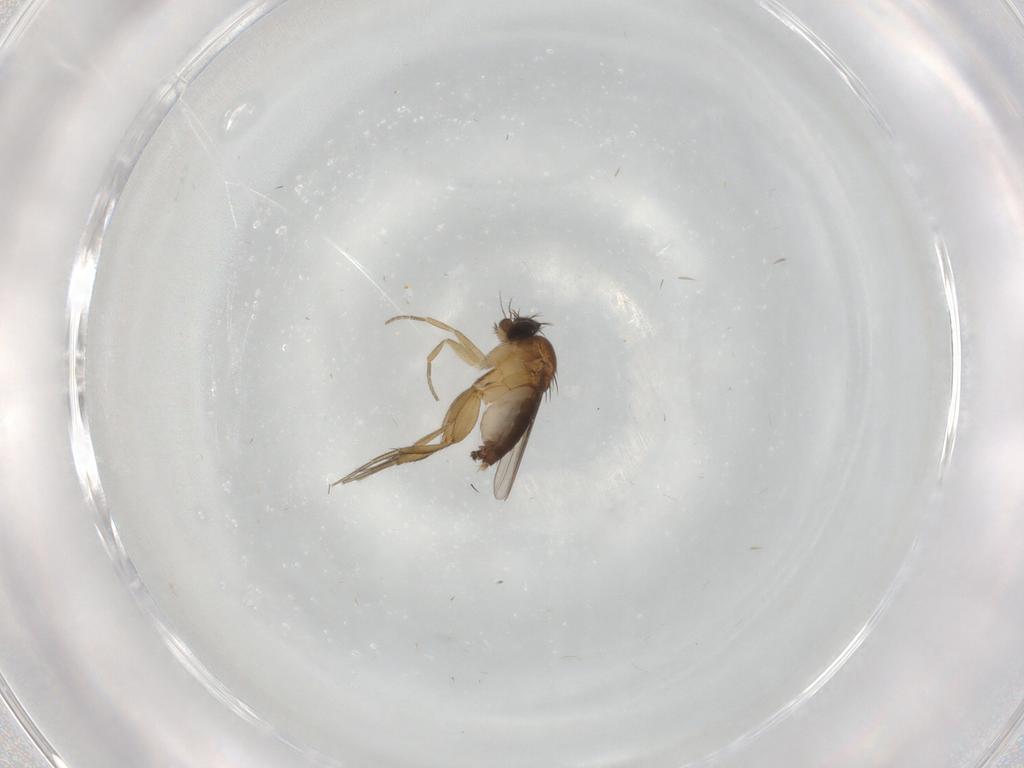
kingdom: Animalia
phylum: Arthropoda
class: Insecta
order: Diptera
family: Phoridae
